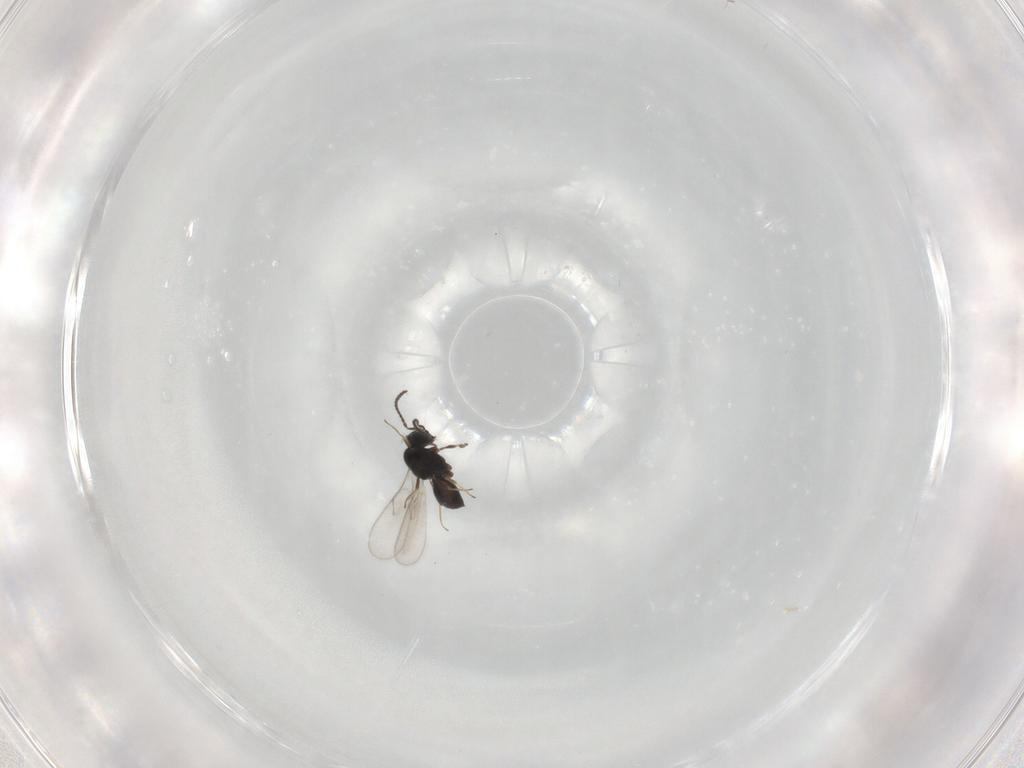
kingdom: Animalia
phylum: Arthropoda
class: Insecta
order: Hymenoptera
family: Scelionidae
